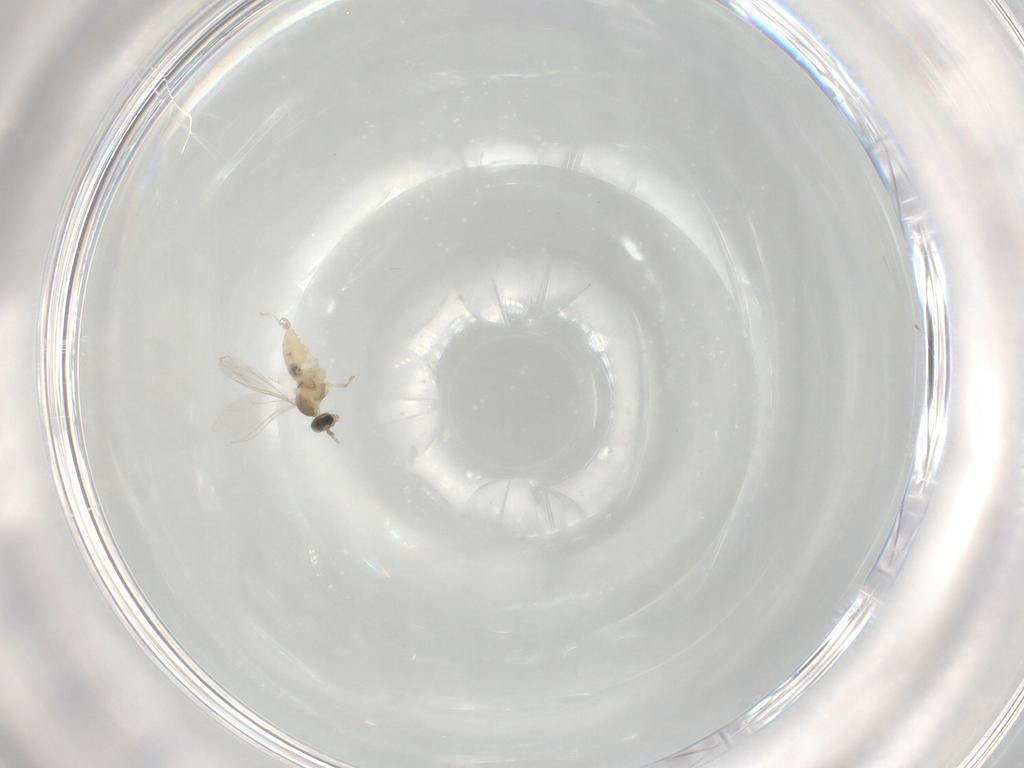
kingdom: Animalia
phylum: Arthropoda
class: Insecta
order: Diptera
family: Cecidomyiidae
